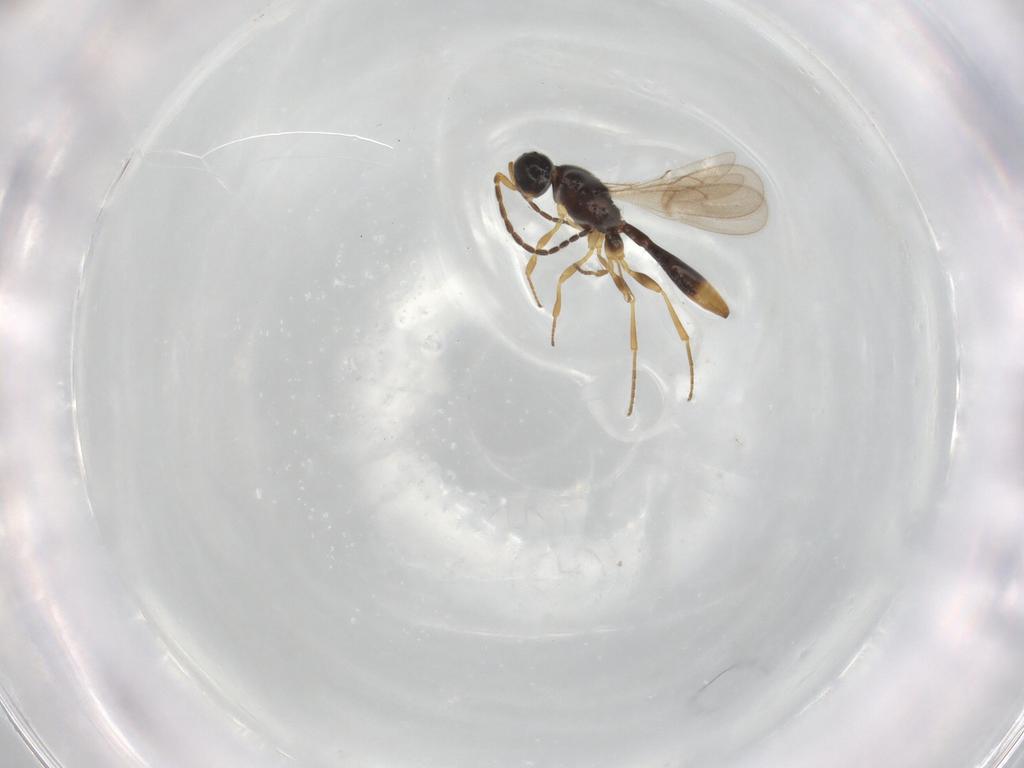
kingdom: Animalia
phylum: Arthropoda
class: Insecta
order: Hymenoptera
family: Scelionidae
